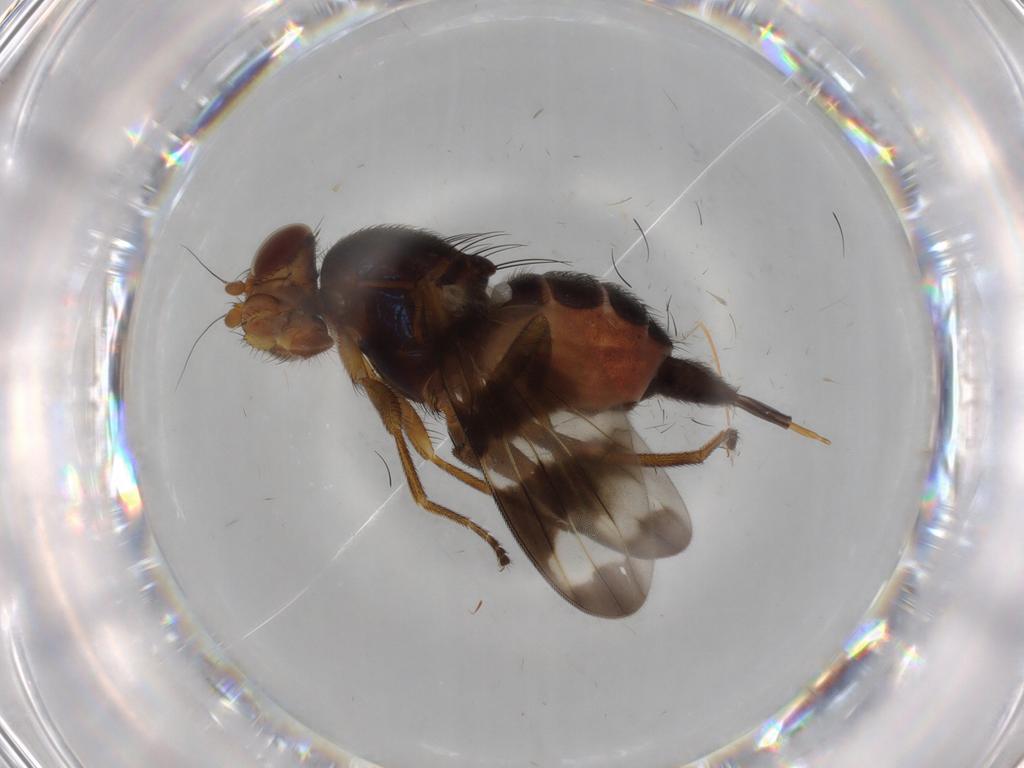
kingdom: Animalia
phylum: Arthropoda
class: Insecta
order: Diptera
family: Ulidiidae
